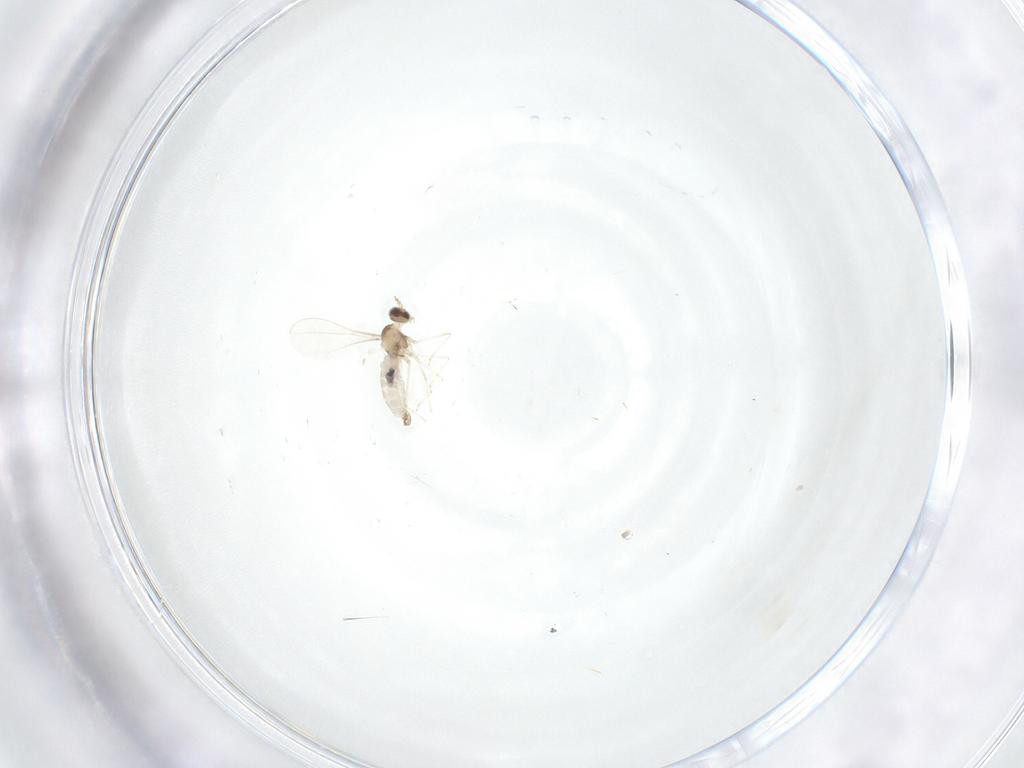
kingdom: Animalia
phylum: Arthropoda
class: Insecta
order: Diptera
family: Cecidomyiidae
